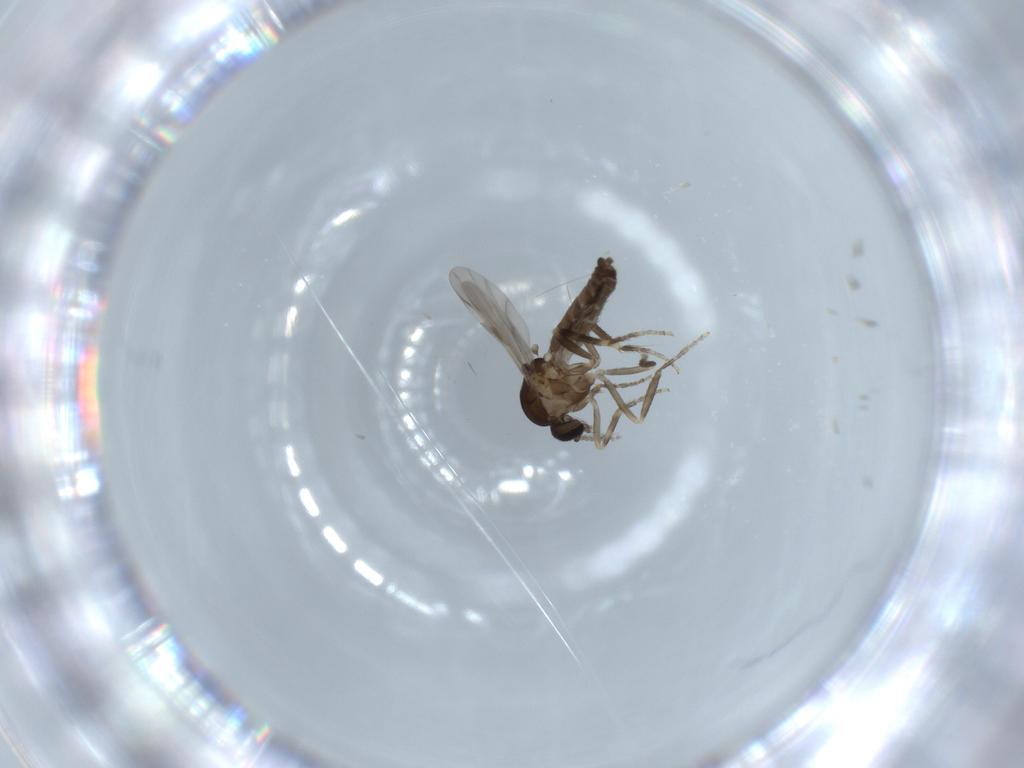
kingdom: Animalia
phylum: Arthropoda
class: Insecta
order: Diptera
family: Ceratopogonidae
